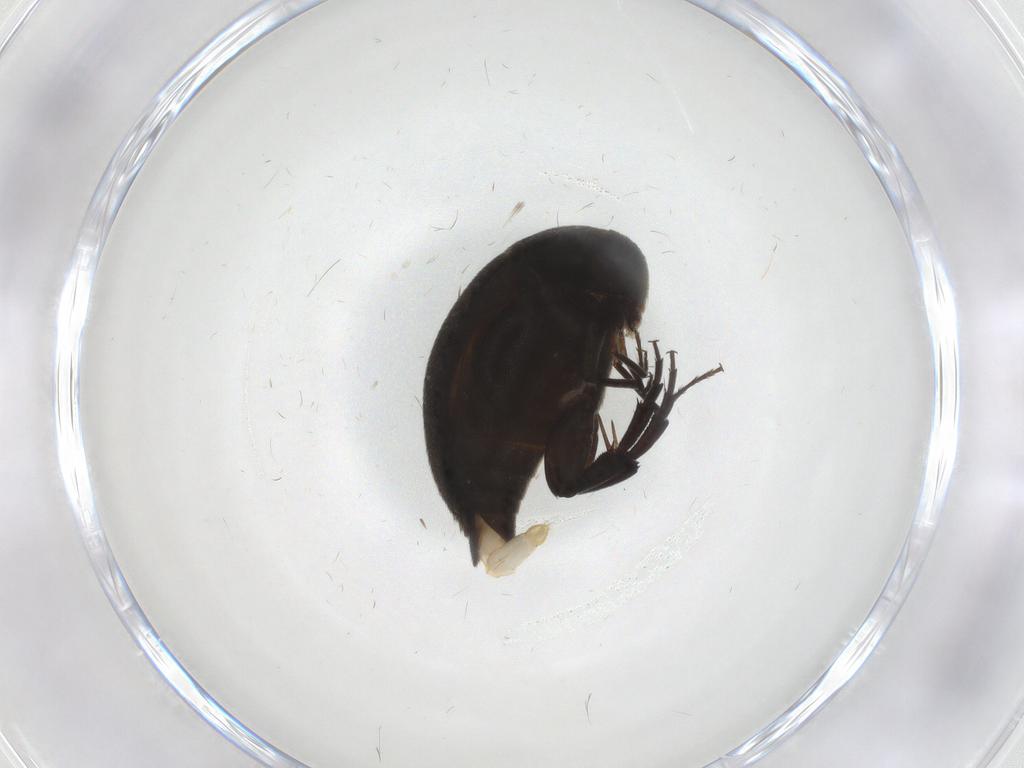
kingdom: Animalia
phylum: Arthropoda
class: Insecta
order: Coleoptera
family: Mordellidae
